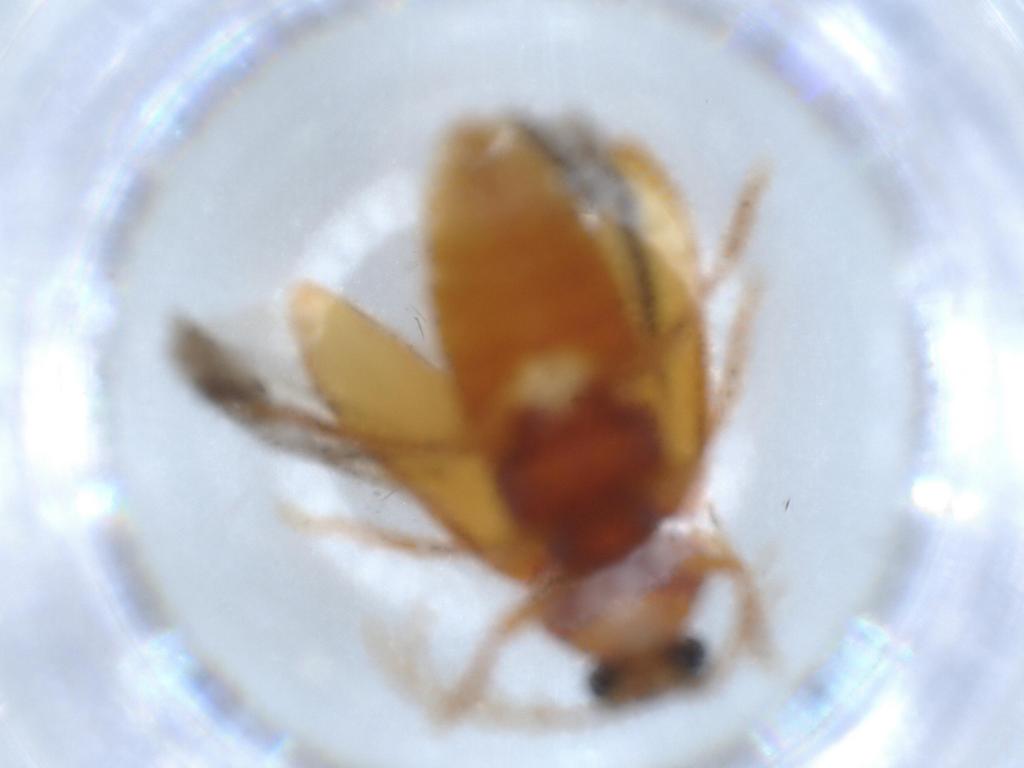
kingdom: Animalia
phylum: Arthropoda
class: Insecta
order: Coleoptera
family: Ptilodactylidae
